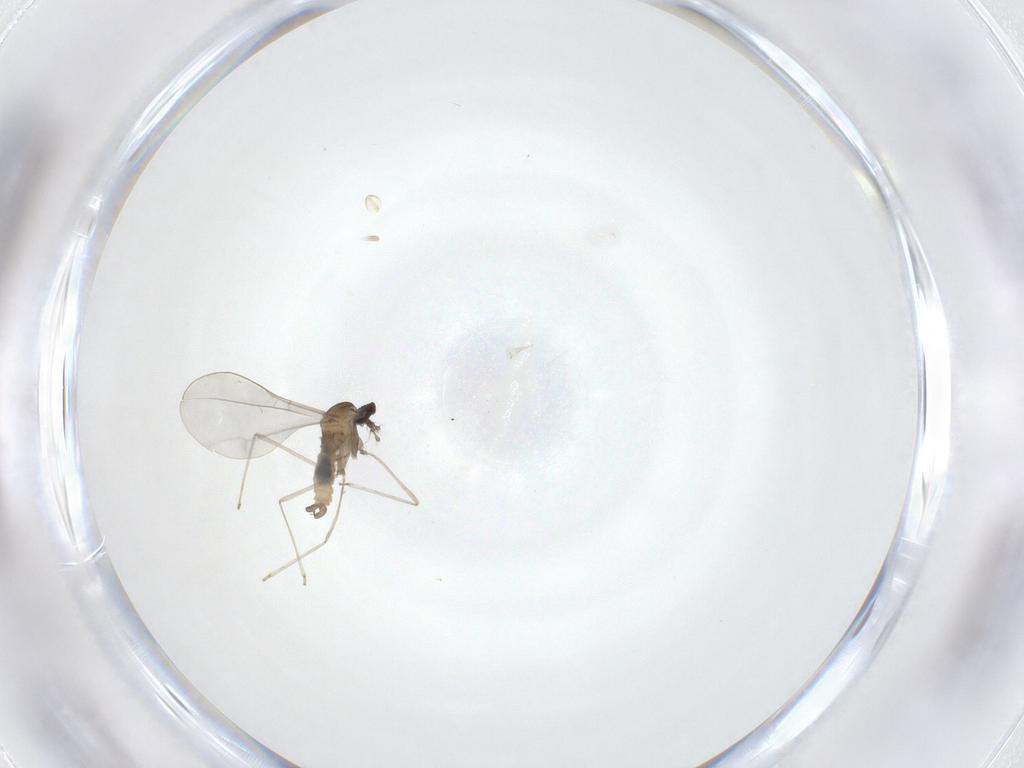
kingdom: Animalia
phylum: Arthropoda
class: Insecta
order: Diptera
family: Cecidomyiidae
